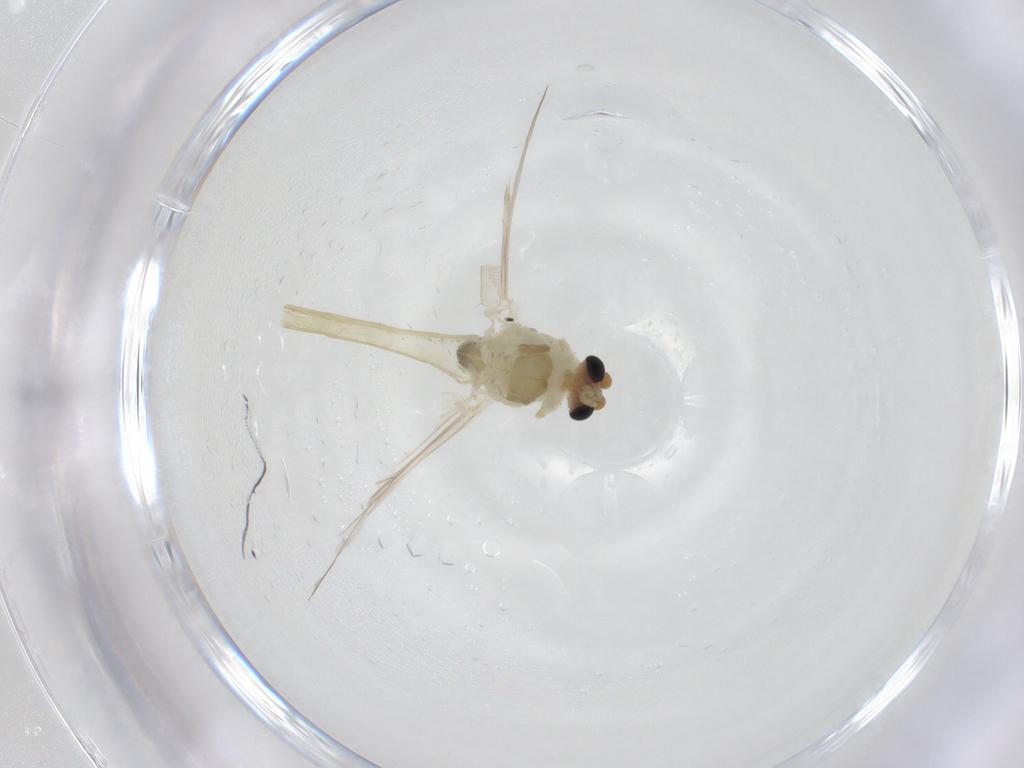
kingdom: Animalia
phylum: Arthropoda
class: Insecta
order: Diptera
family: Chironomidae
